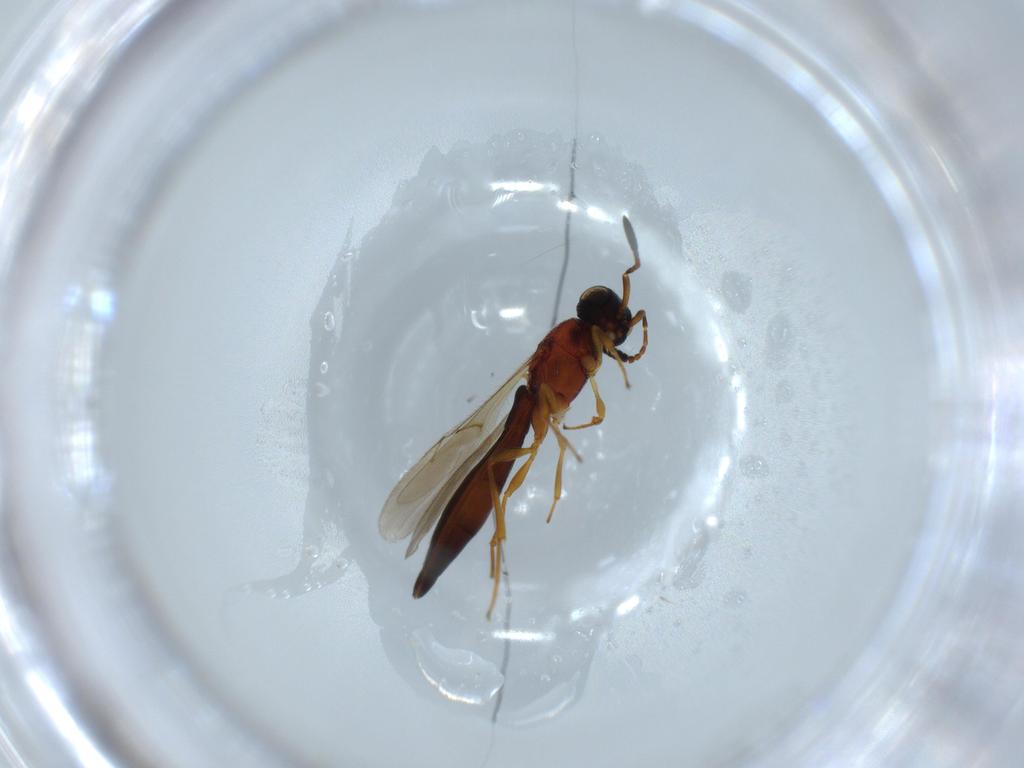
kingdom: Animalia
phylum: Arthropoda
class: Insecta
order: Hymenoptera
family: Scelionidae
